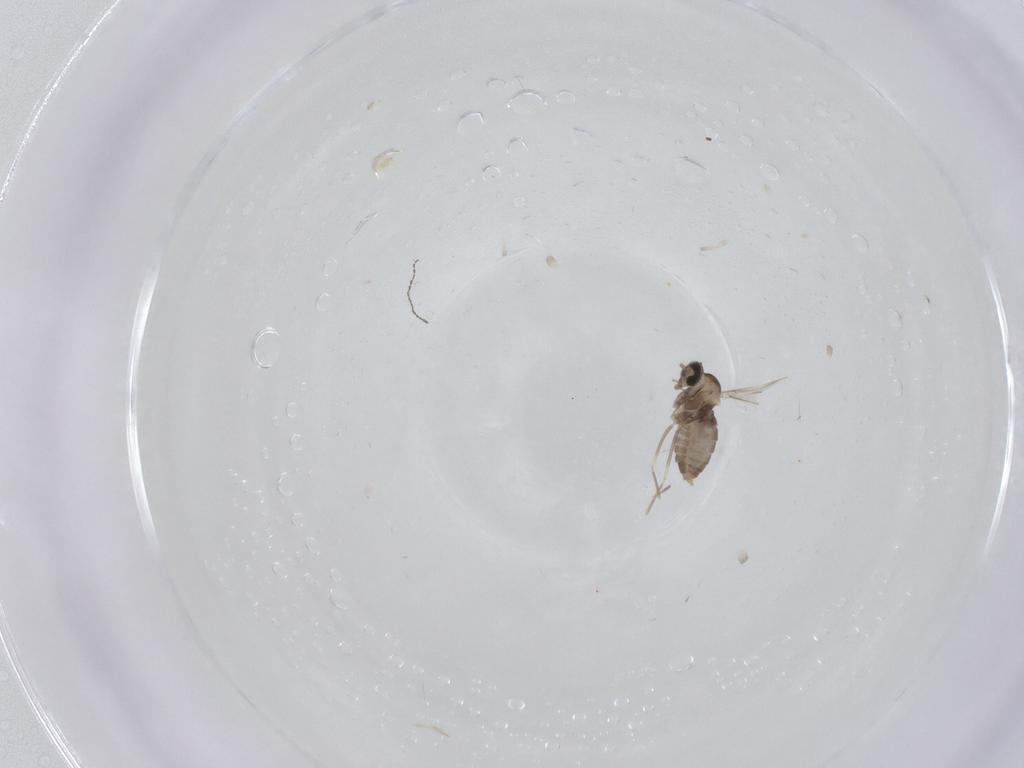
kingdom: Animalia
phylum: Arthropoda
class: Insecta
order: Diptera
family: Cecidomyiidae
